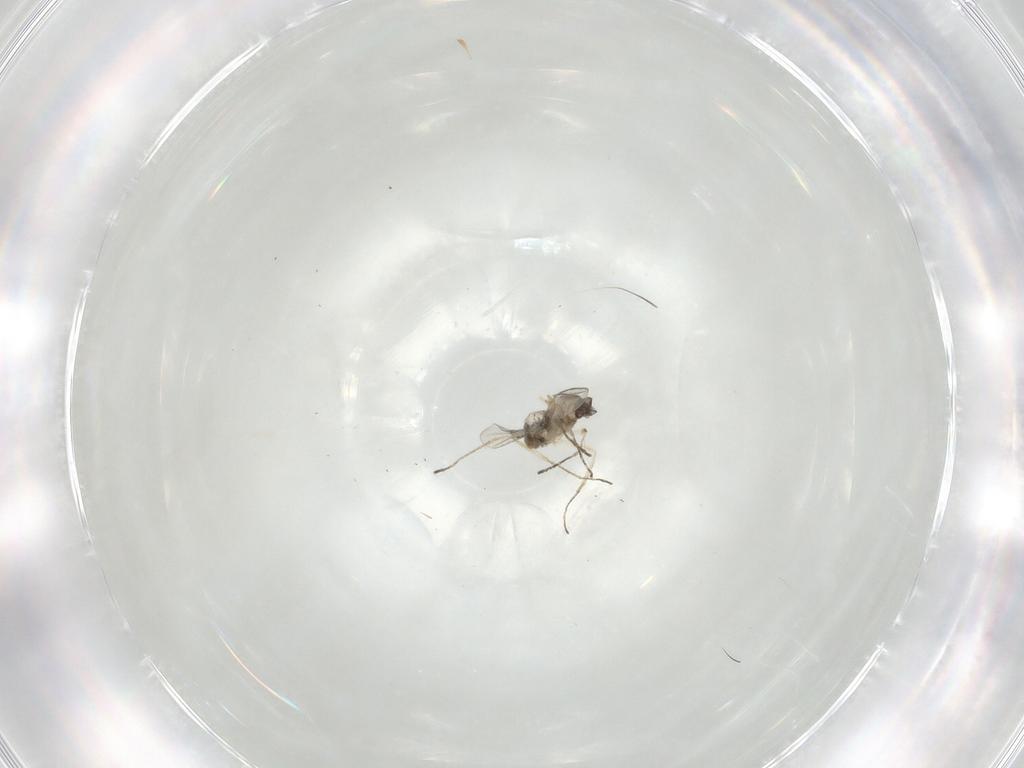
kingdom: Animalia
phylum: Arthropoda
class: Insecta
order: Diptera
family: Cecidomyiidae
